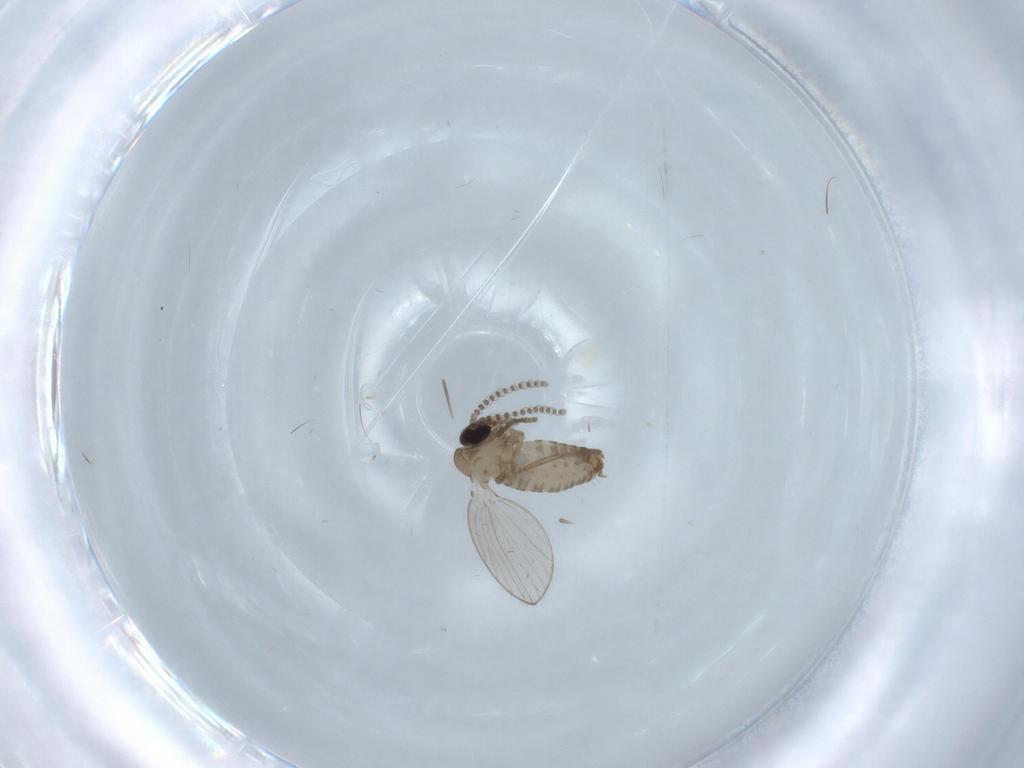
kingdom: Animalia
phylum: Arthropoda
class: Insecta
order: Diptera
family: Psychodidae
